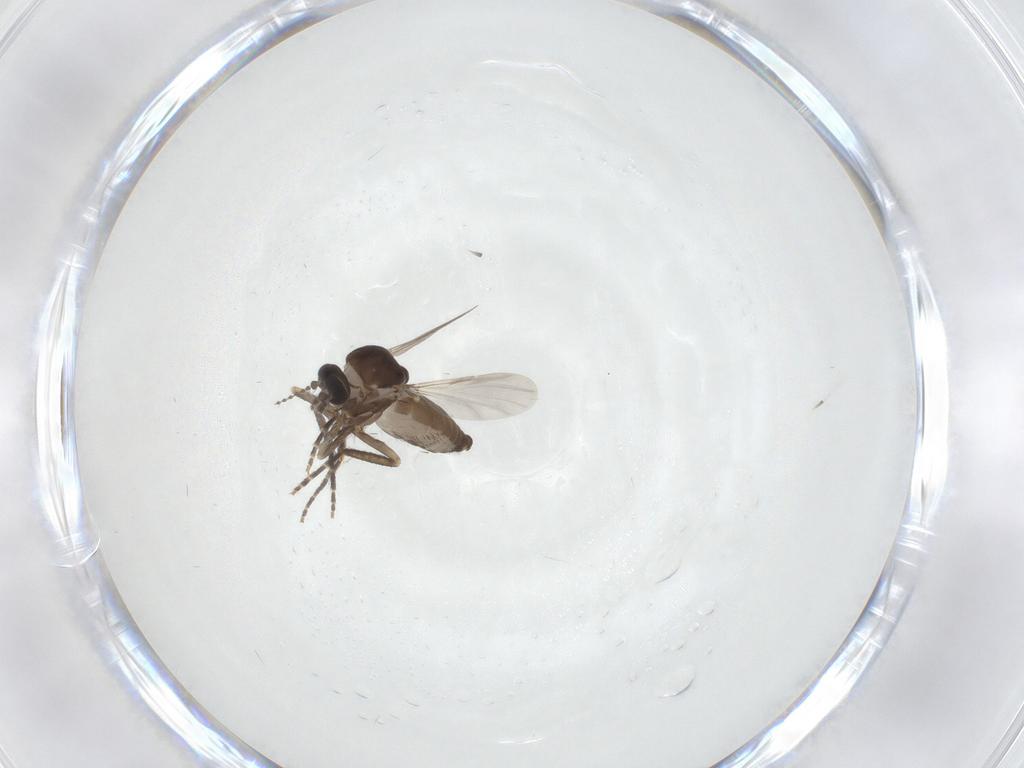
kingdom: Animalia
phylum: Arthropoda
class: Insecta
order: Diptera
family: Ceratopogonidae
